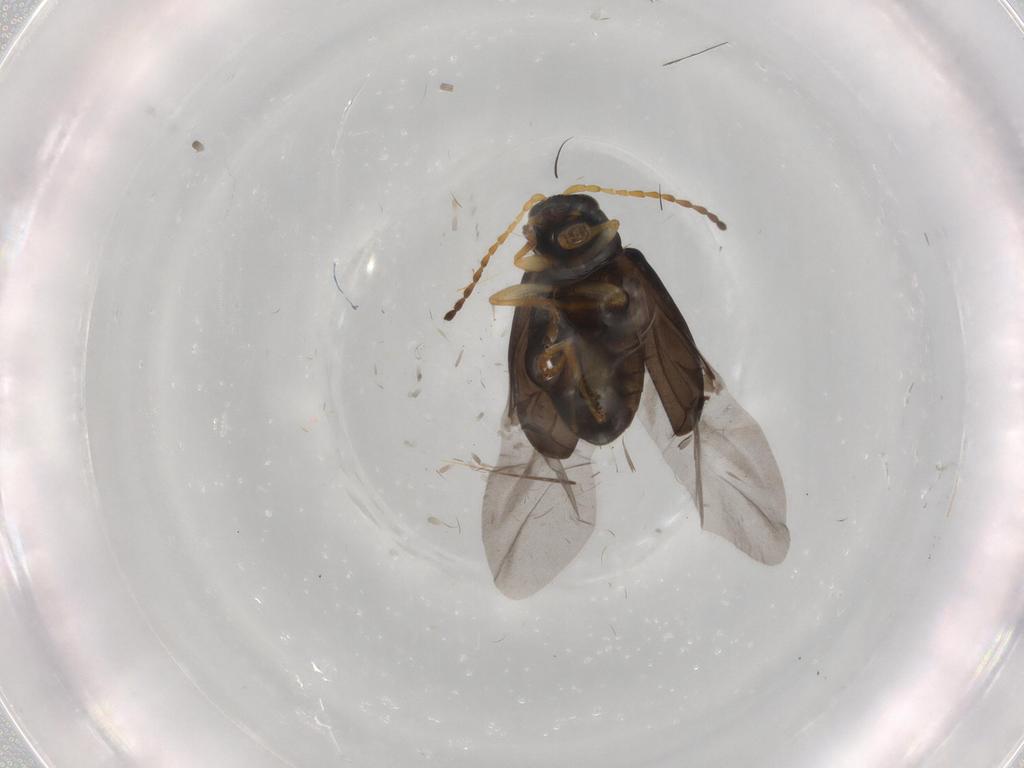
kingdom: Animalia
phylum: Arthropoda
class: Insecta
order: Coleoptera
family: Chrysomelidae
